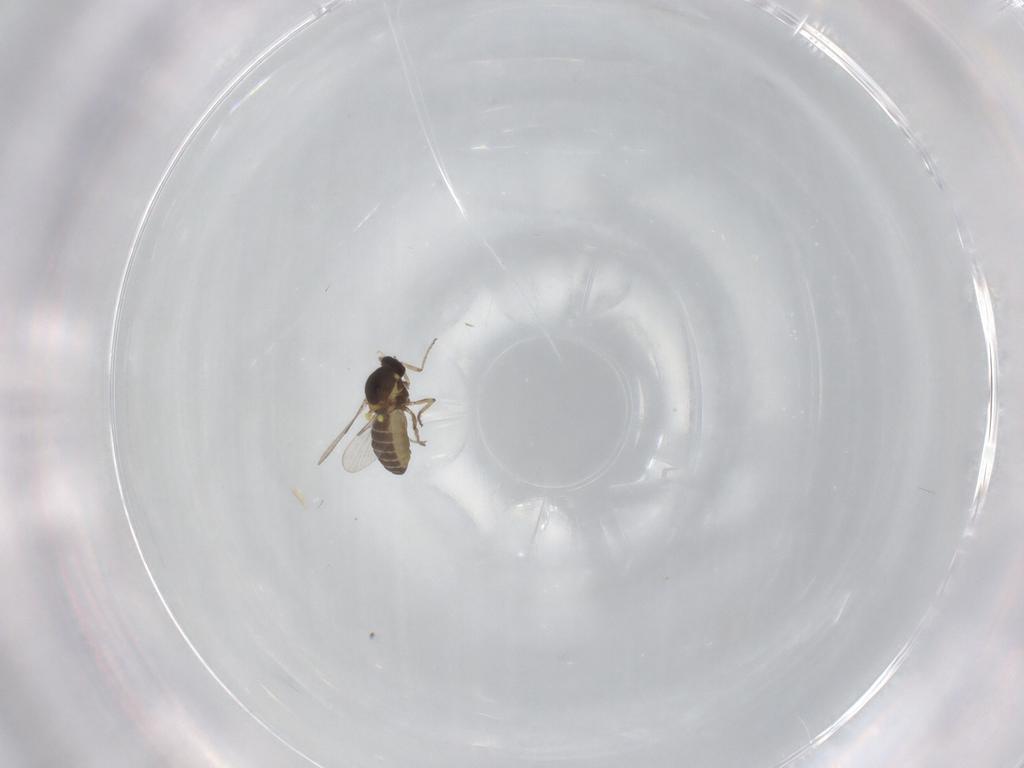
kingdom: Animalia
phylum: Arthropoda
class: Insecta
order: Diptera
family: Ceratopogonidae
